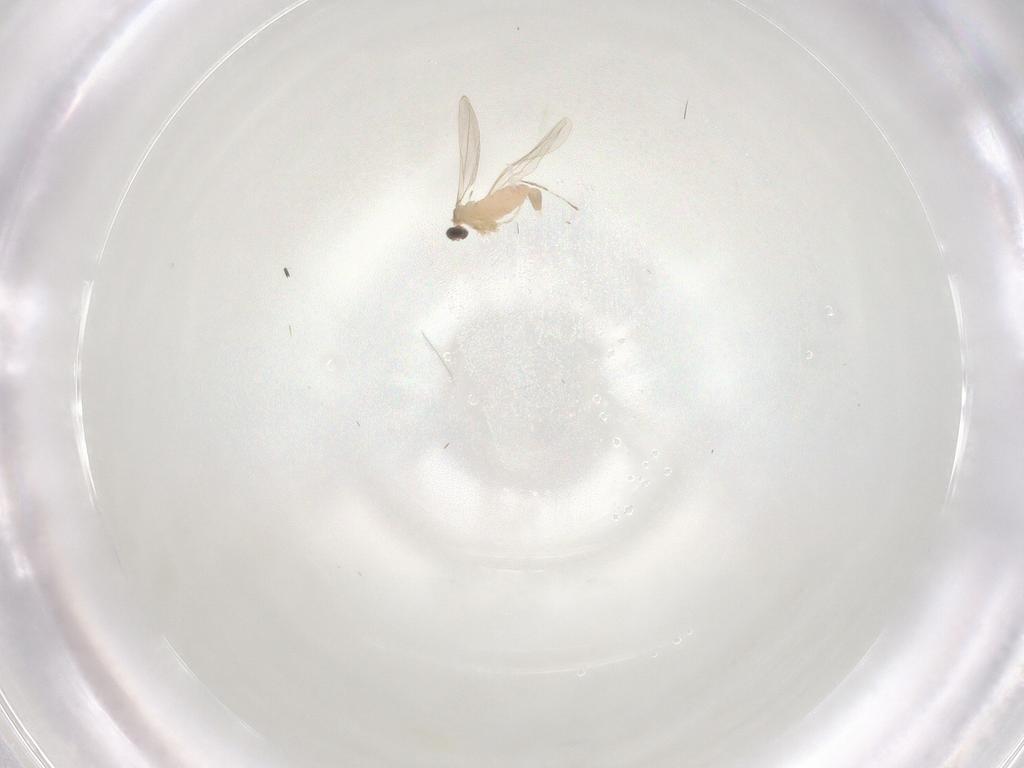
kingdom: Animalia
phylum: Arthropoda
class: Insecta
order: Diptera
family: Cecidomyiidae
